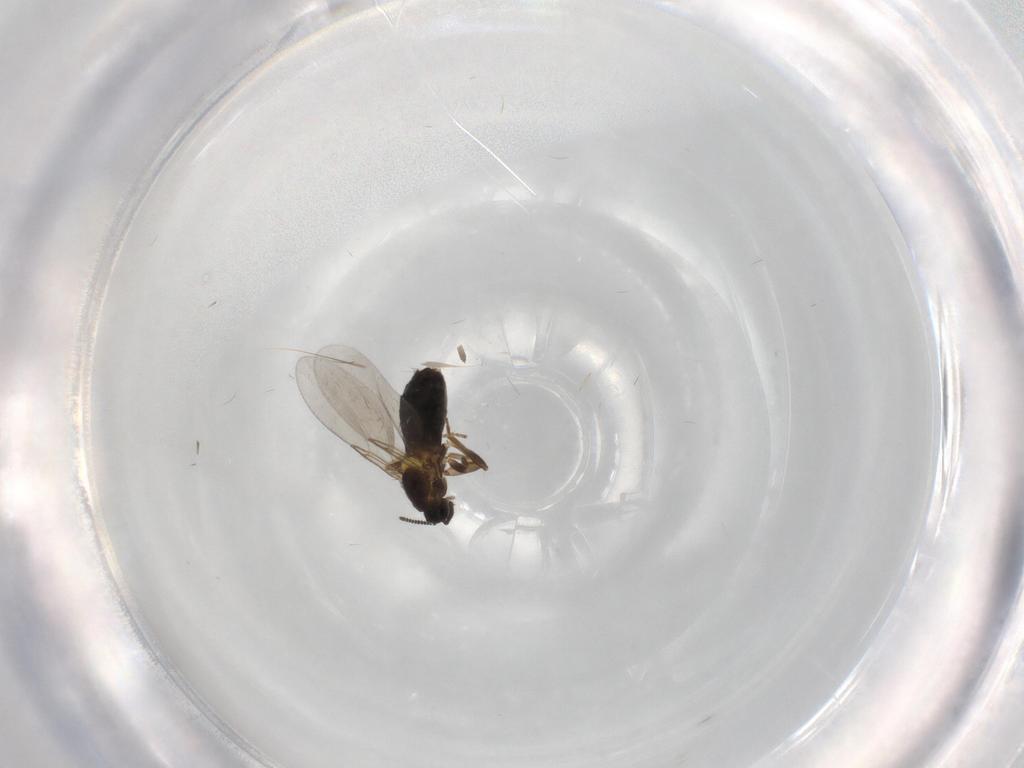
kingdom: Animalia
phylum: Arthropoda
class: Insecta
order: Diptera
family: Scatopsidae
